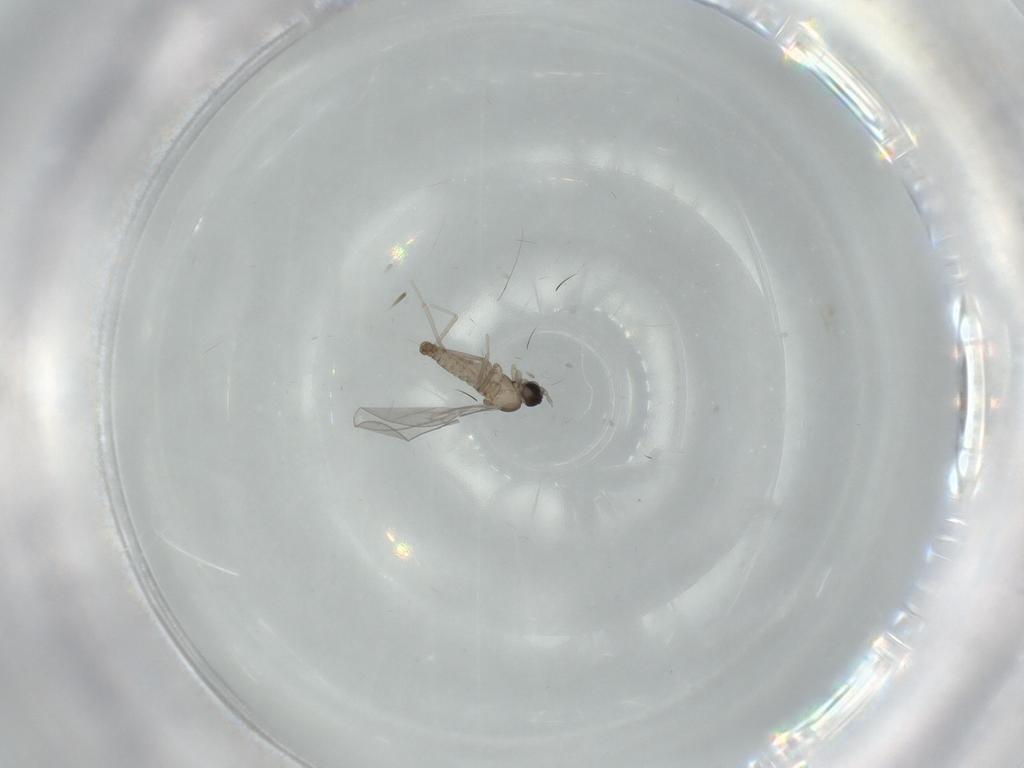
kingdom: Animalia
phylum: Arthropoda
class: Insecta
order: Diptera
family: Cecidomyiidae
